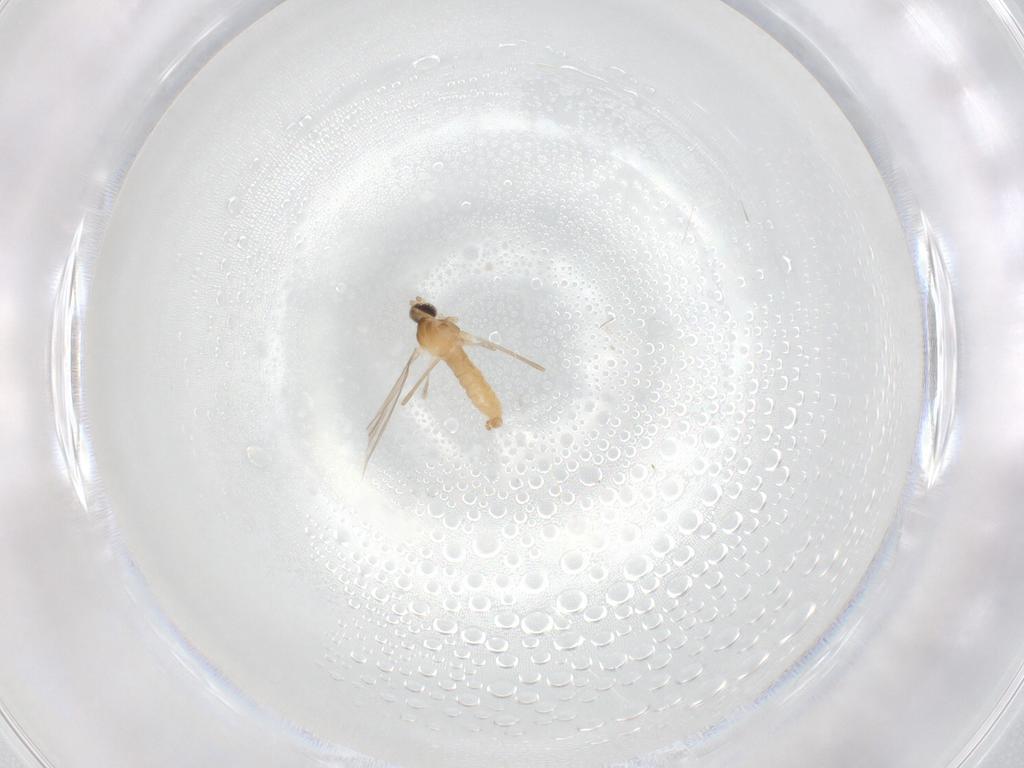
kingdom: Animalia
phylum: Arthropoda
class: Insecta
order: Diptera
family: Cecidomyiidae
